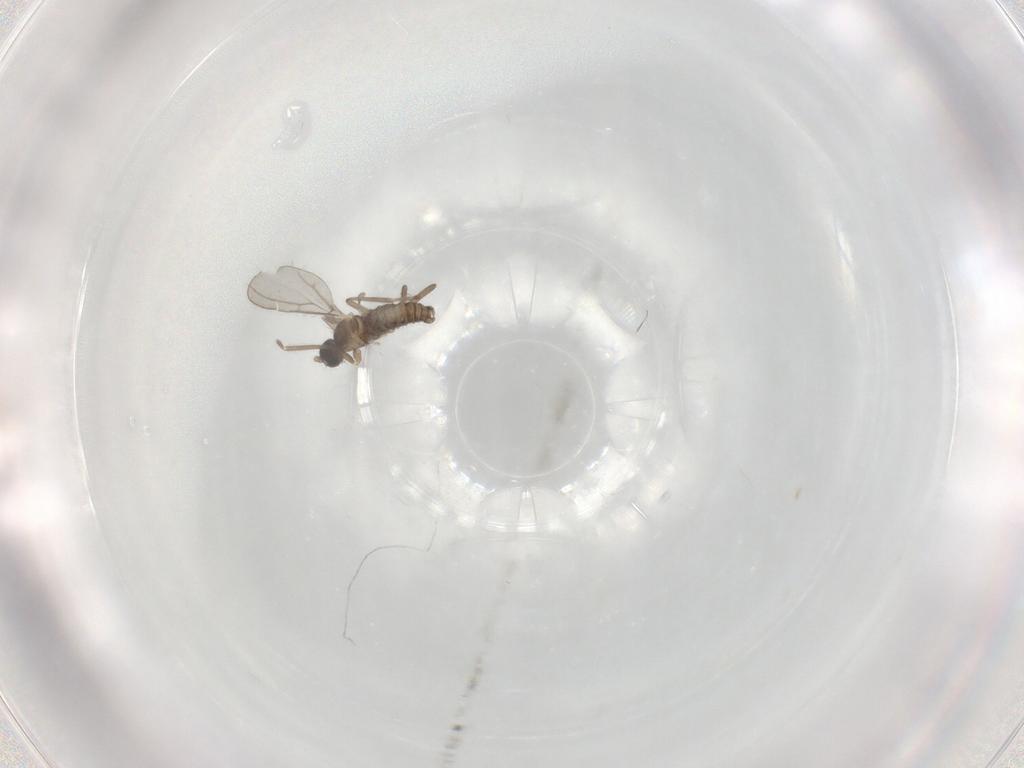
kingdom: Animalia
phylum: Arthropoda
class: Insecta
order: Diptera
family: Cecidomyiidae
